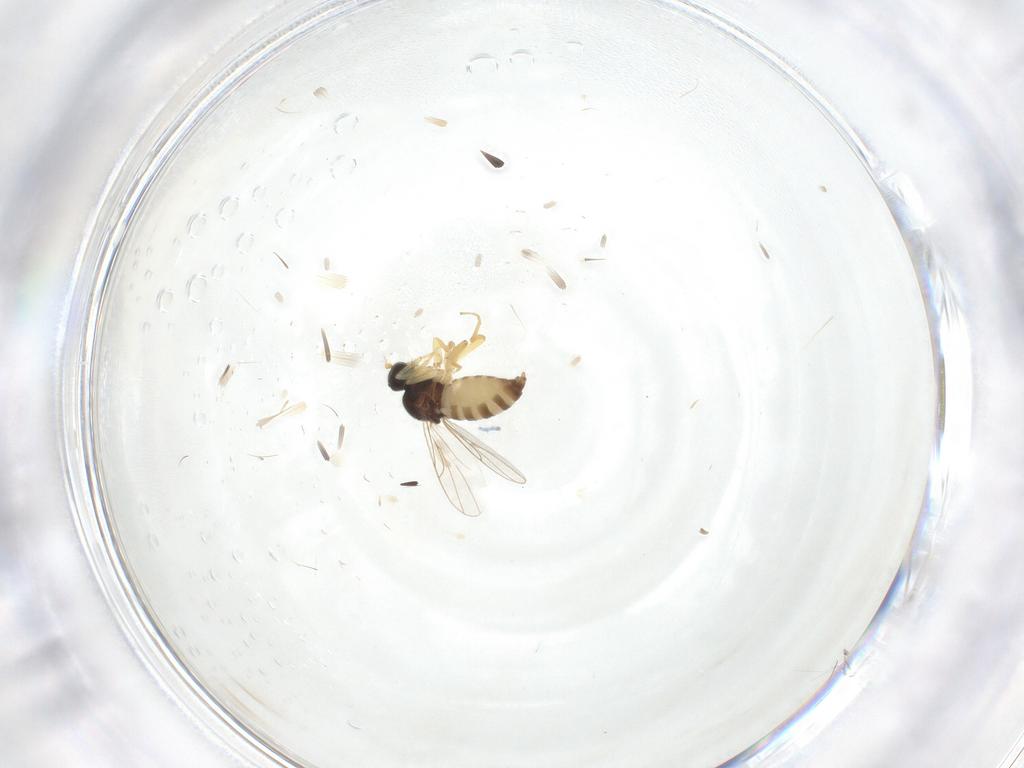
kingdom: Animalia
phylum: Arthropoda
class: Insecta
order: Diptera
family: Hybotidae
